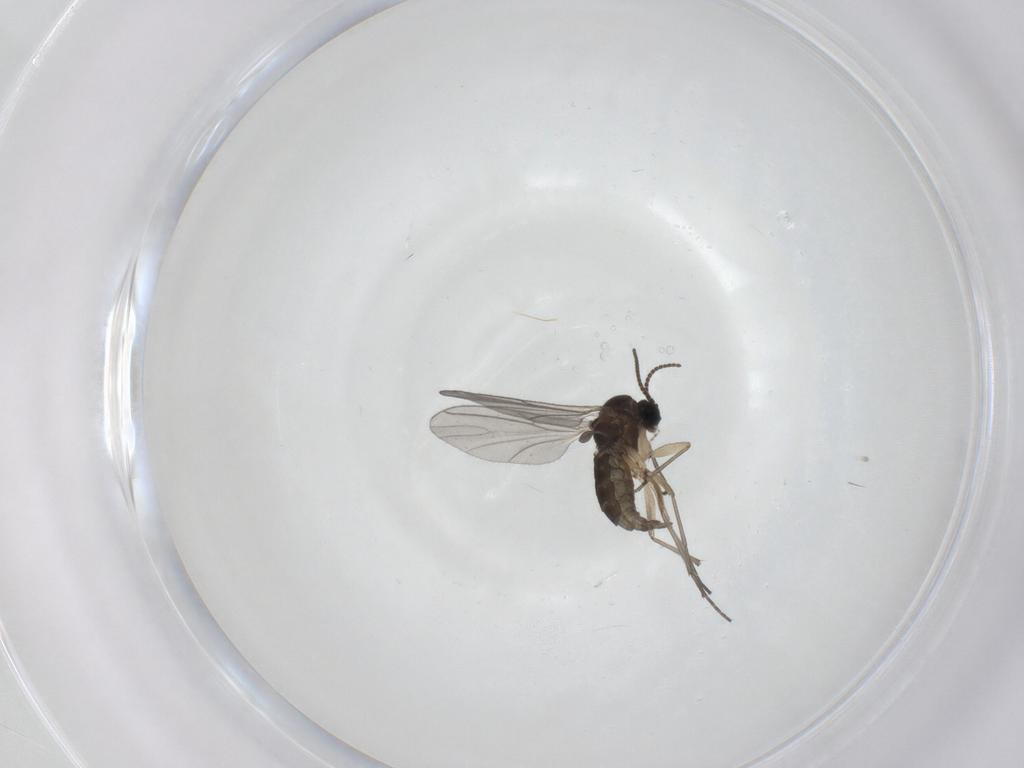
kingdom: Animalia
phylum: Arthropoda
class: Insecta
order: Diptera
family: Sciaridae
